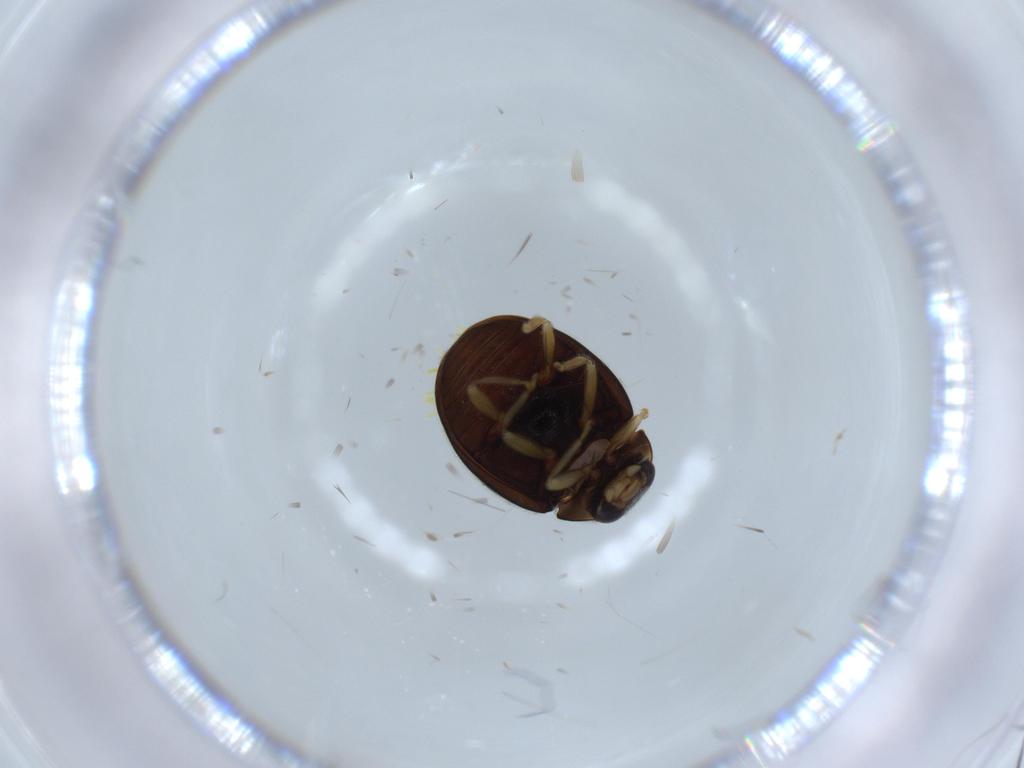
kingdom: Animalia
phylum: Arthropoda
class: Insecta
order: Coleoptera
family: Coccinellidae
